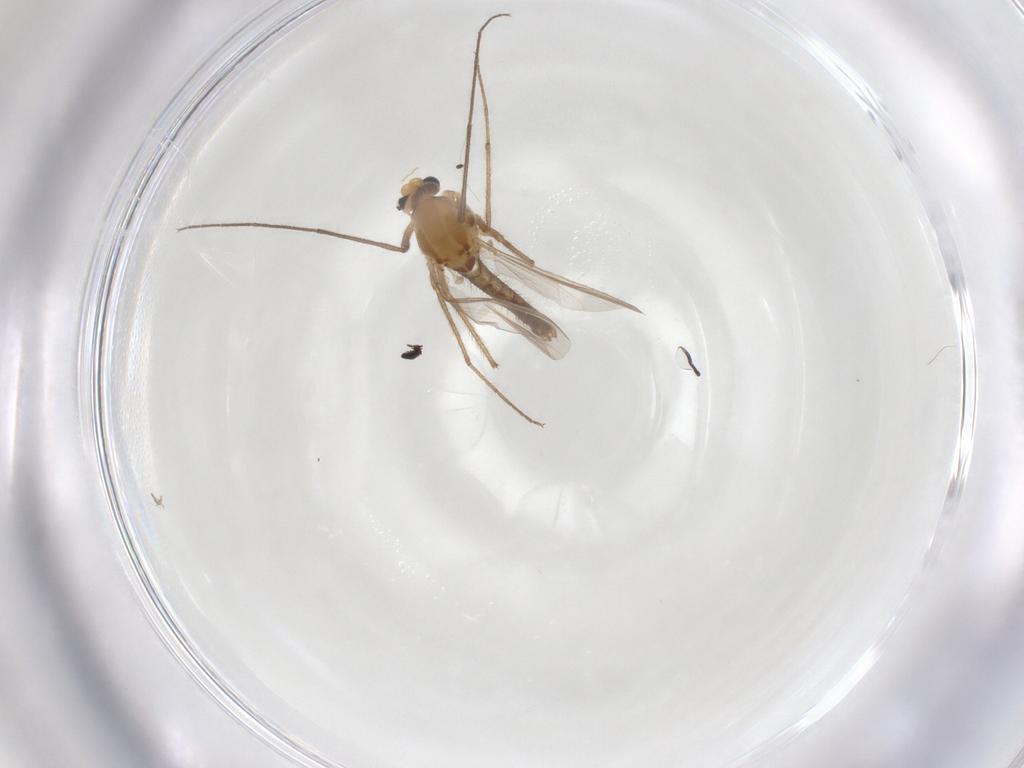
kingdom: Animalia
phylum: Arthropoda
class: Insecta
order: Diptera
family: Chironomidae
